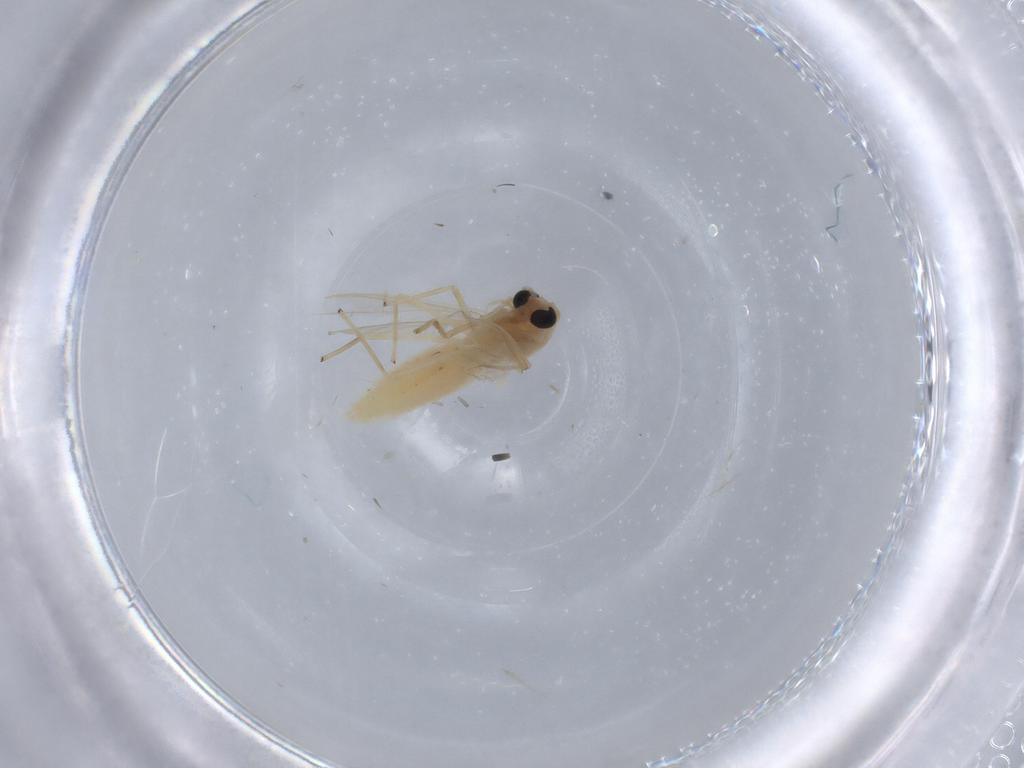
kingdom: Animalia
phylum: Arthropoda
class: Insecta
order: Diptera
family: Chironomidae
